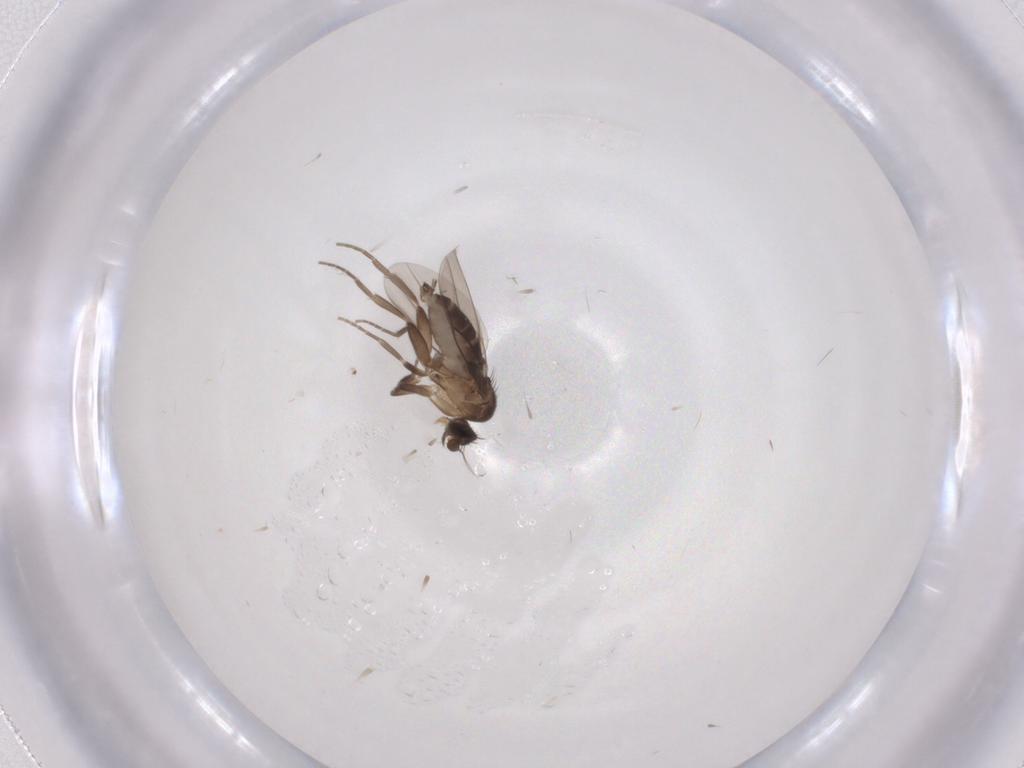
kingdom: Animalia
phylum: Arthropoda
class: Insecta
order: Diptera
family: Cecidomyiidae
